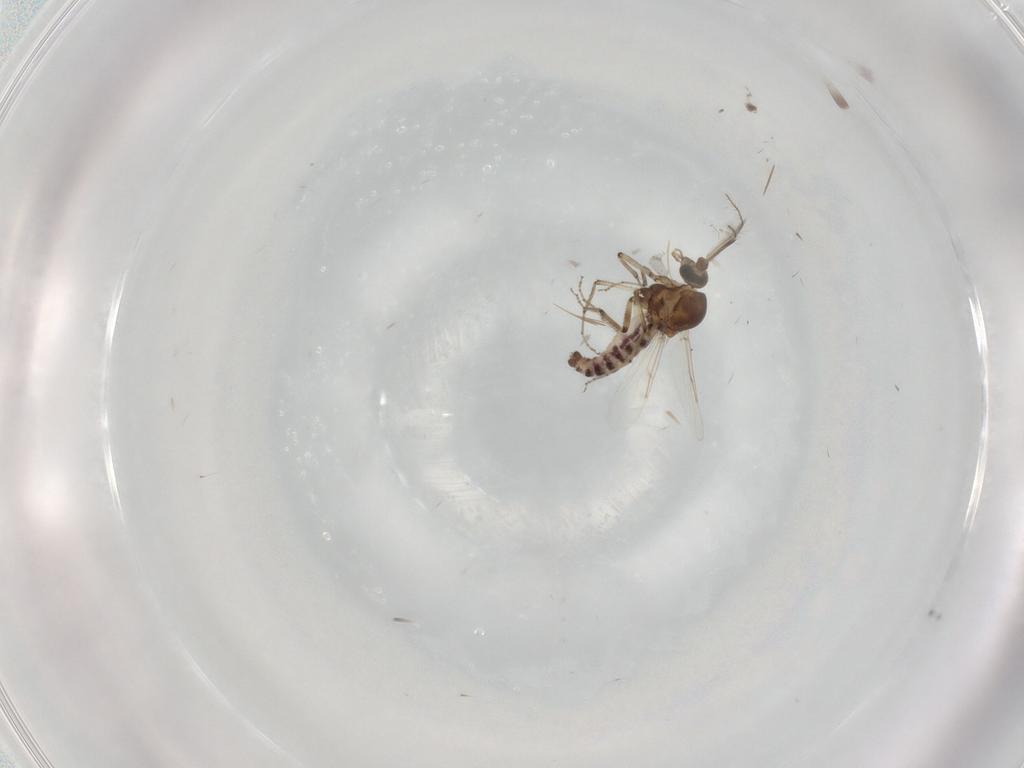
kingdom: Animalia
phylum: Arthropoda
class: Insecta
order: Diptera
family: Ceratopogonidae
